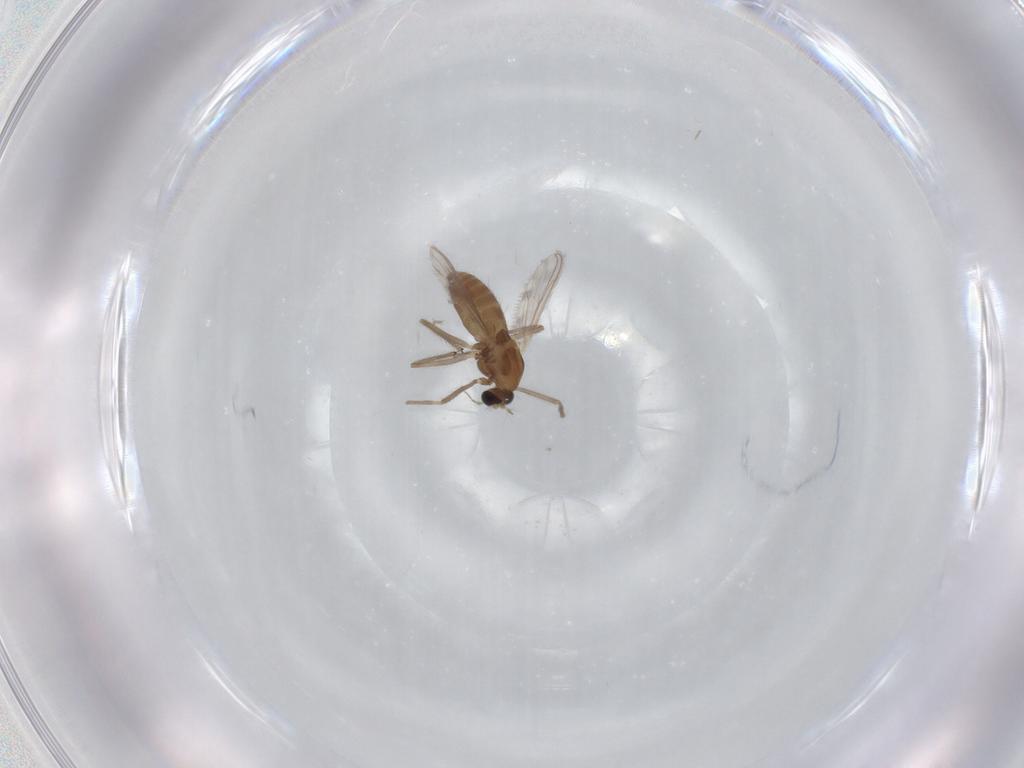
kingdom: Animalia
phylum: Arthropoda
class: Insecta
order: Diptera
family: Chironomidae
